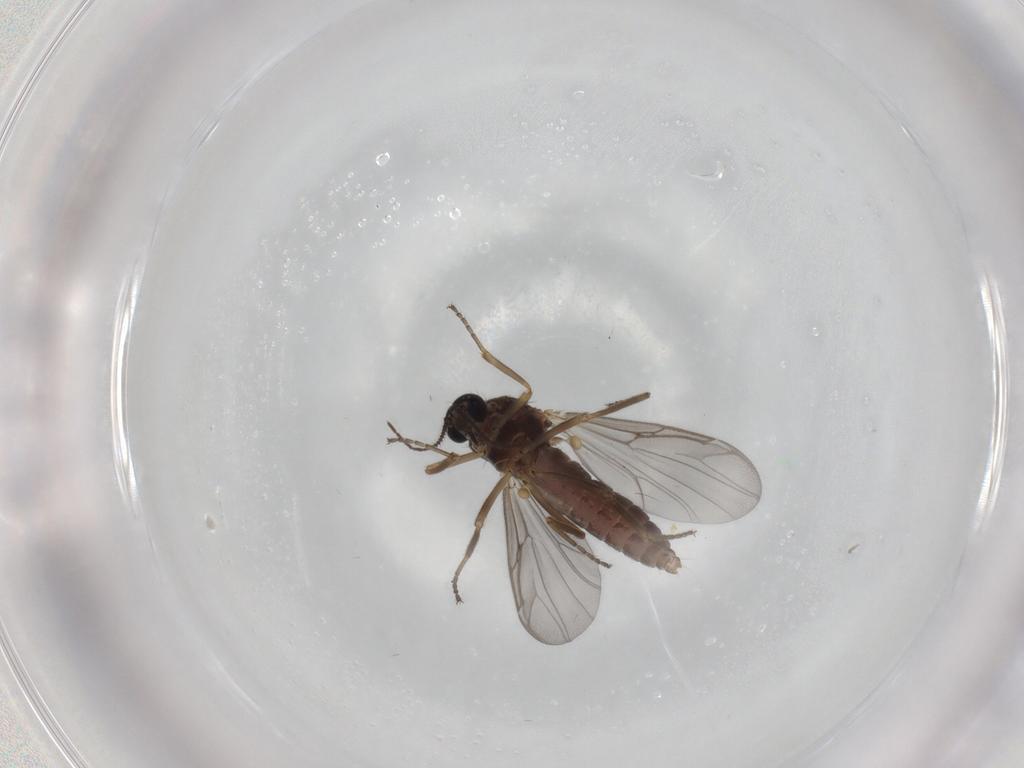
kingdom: Animalia
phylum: Arthropoda
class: Insecta
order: Diptera
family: Ceratopogonidae
